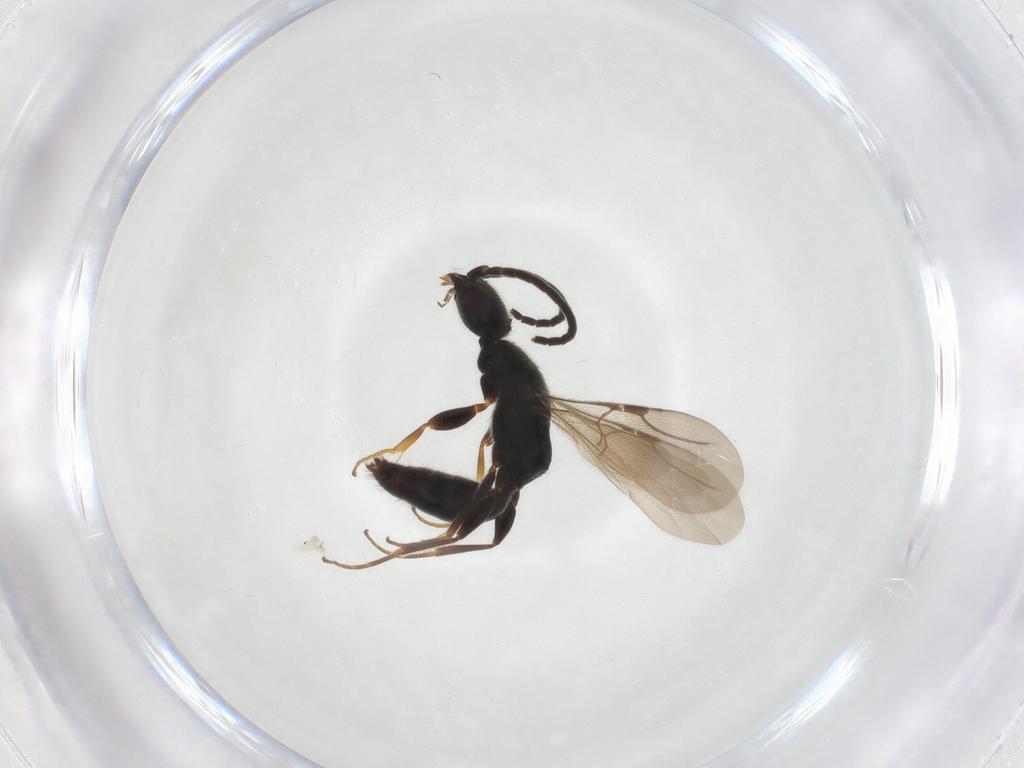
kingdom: Animalia
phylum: Arthropoda
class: Insecta
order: Hymenoptera
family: Bethylidae
